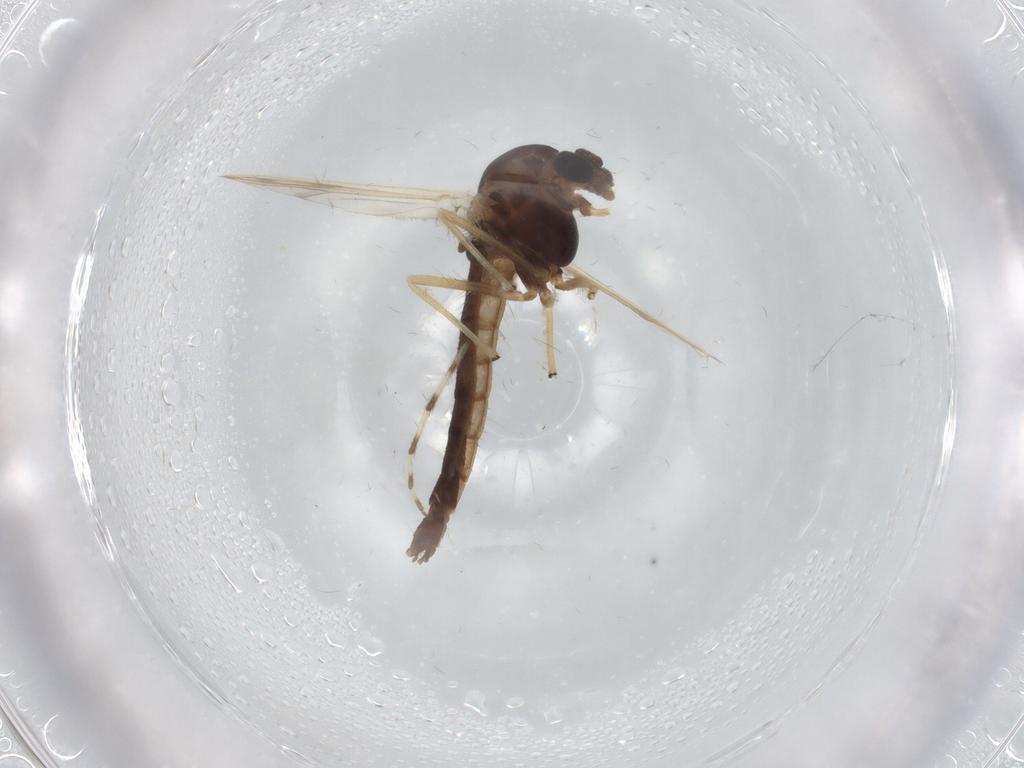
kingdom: Animalia
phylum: Arthropoda
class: Insecta
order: Diptera
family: Chironomidae
